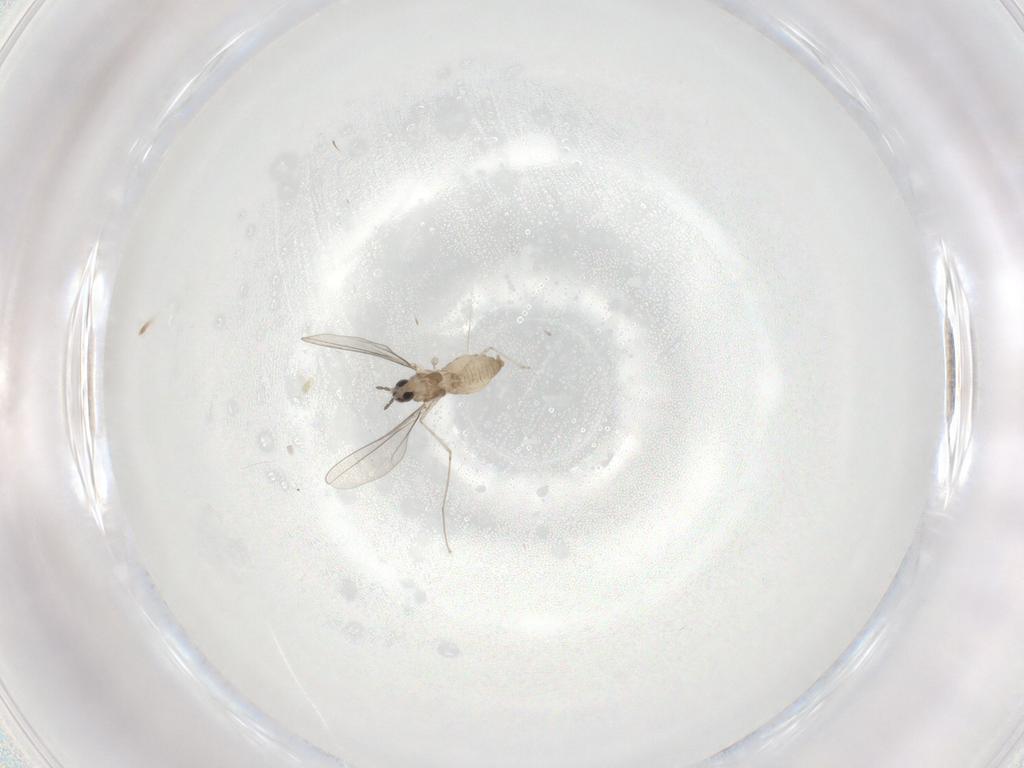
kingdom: Animalia
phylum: Arthropoda
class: Insecta
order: Diptera
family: Cecidomyiidae
